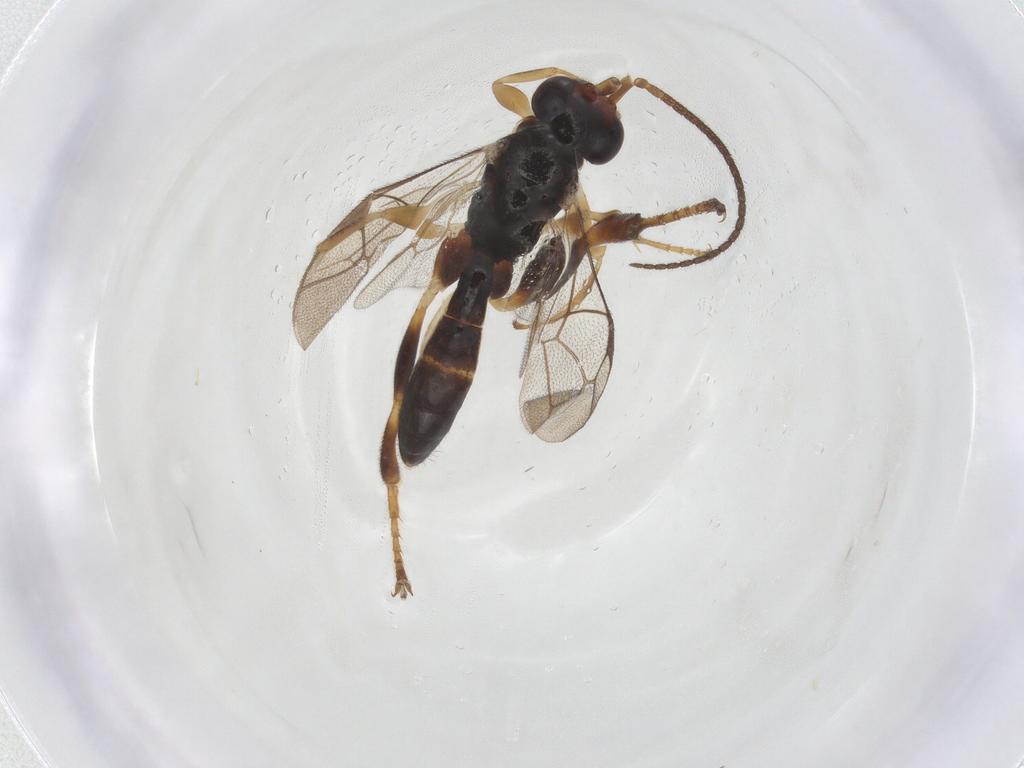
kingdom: Animalia
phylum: Arthropoda
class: Insecta
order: Hymenoptera
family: Ichneumonidae
